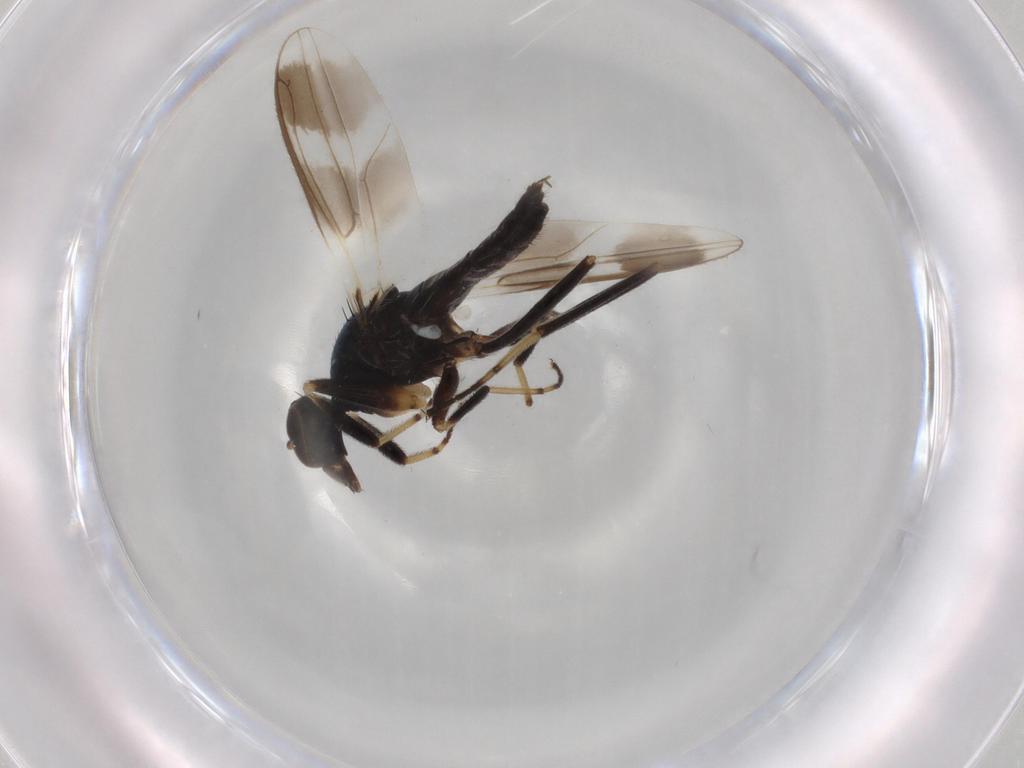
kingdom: Animalia
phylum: Arthropoda
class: Insecta
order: Diptera
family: Hybotidae
